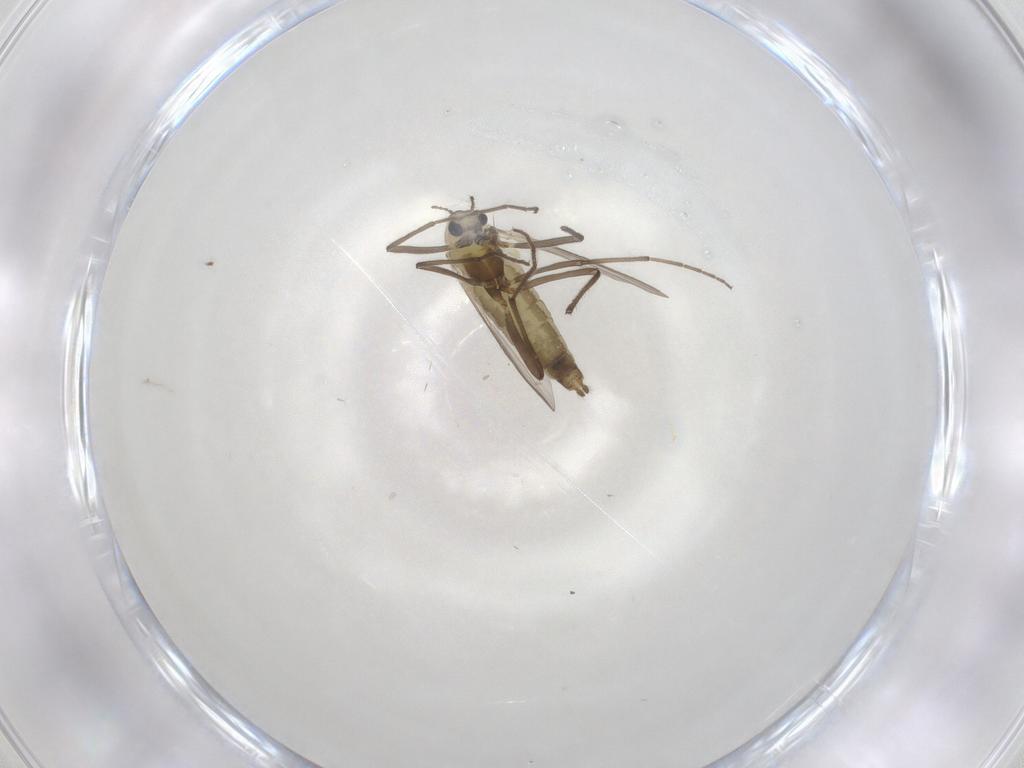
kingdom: Animalia
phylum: Arthropoda
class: Insecta
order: Diptera
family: Chironomidae
